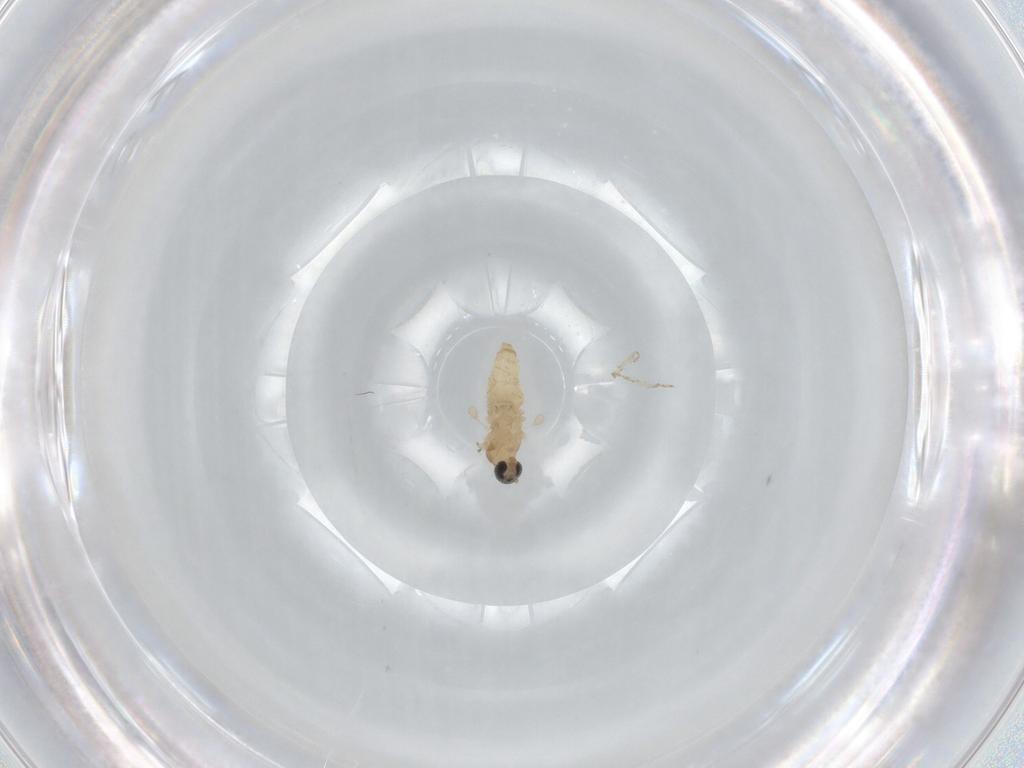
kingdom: Animalia
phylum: Arthropoda
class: Insecta
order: Diptera
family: Cecidomyiidae
